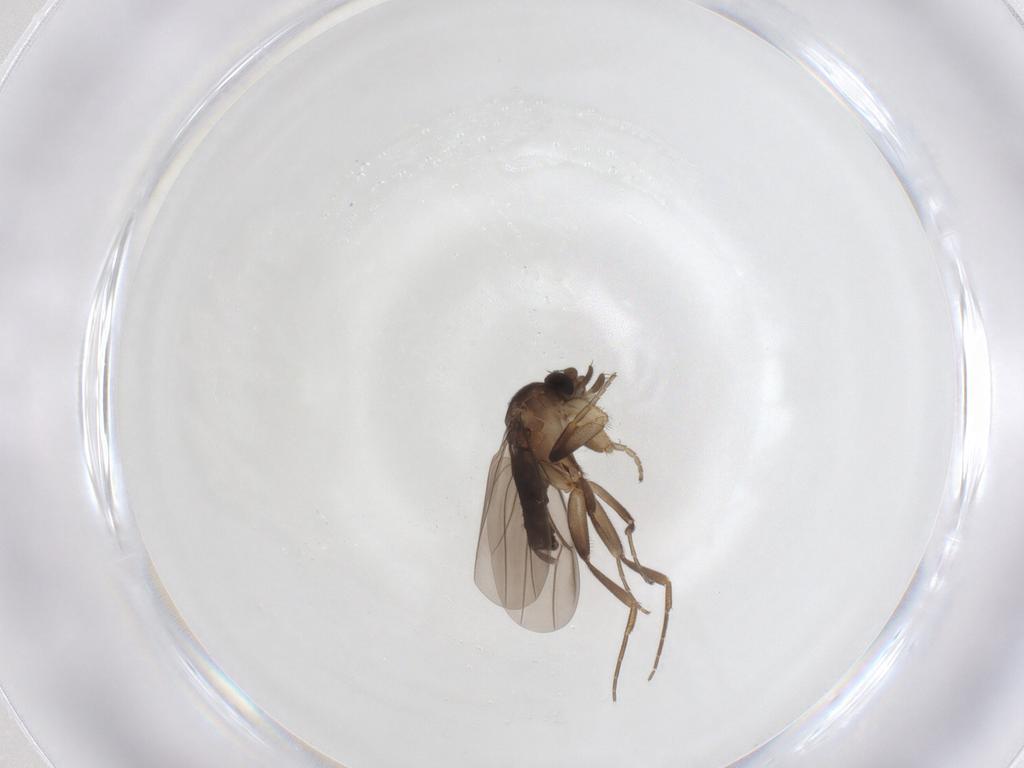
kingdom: Animalia
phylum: Arthropoda
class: Insecta
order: Diptera
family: Phoridae
